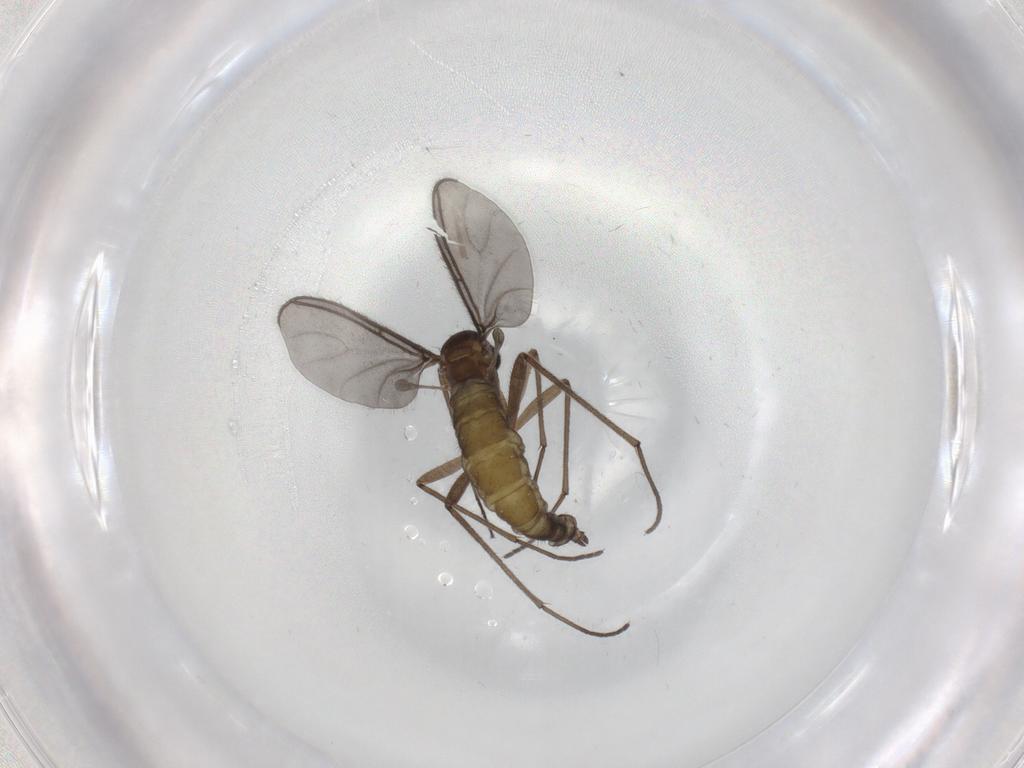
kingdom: Animalia
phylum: Arthropoda
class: Insecta
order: Diptera
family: Sciaridae
